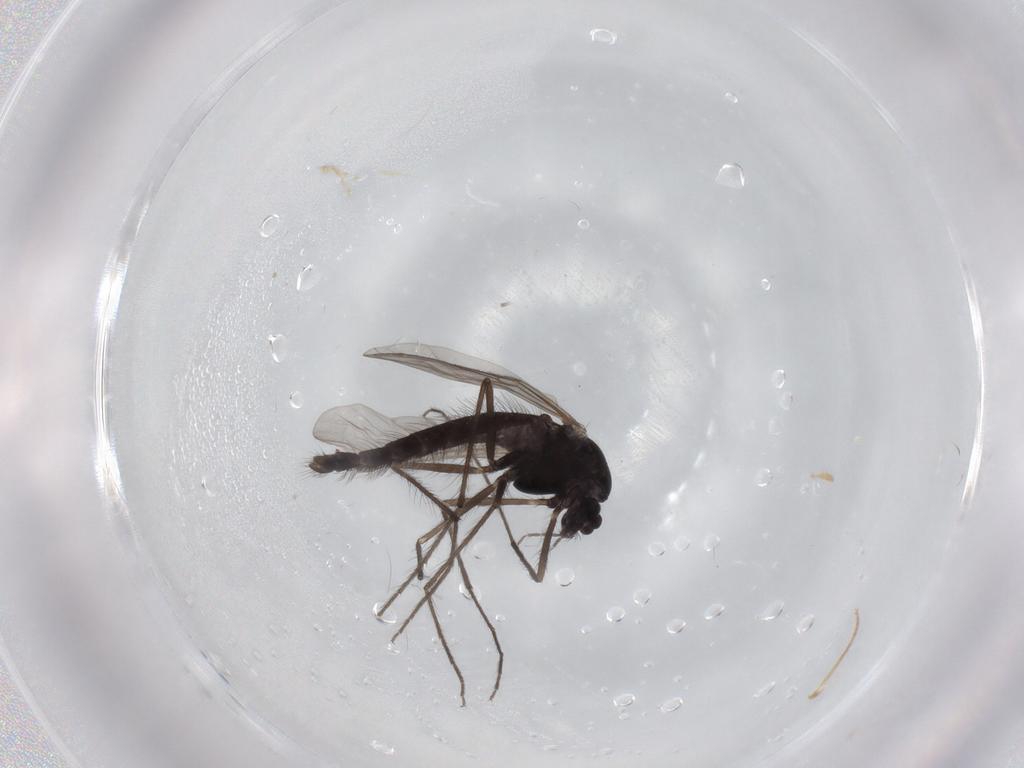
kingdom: Animalia
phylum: Arthropoda
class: Insecta
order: Diptera
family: Chironomidae
